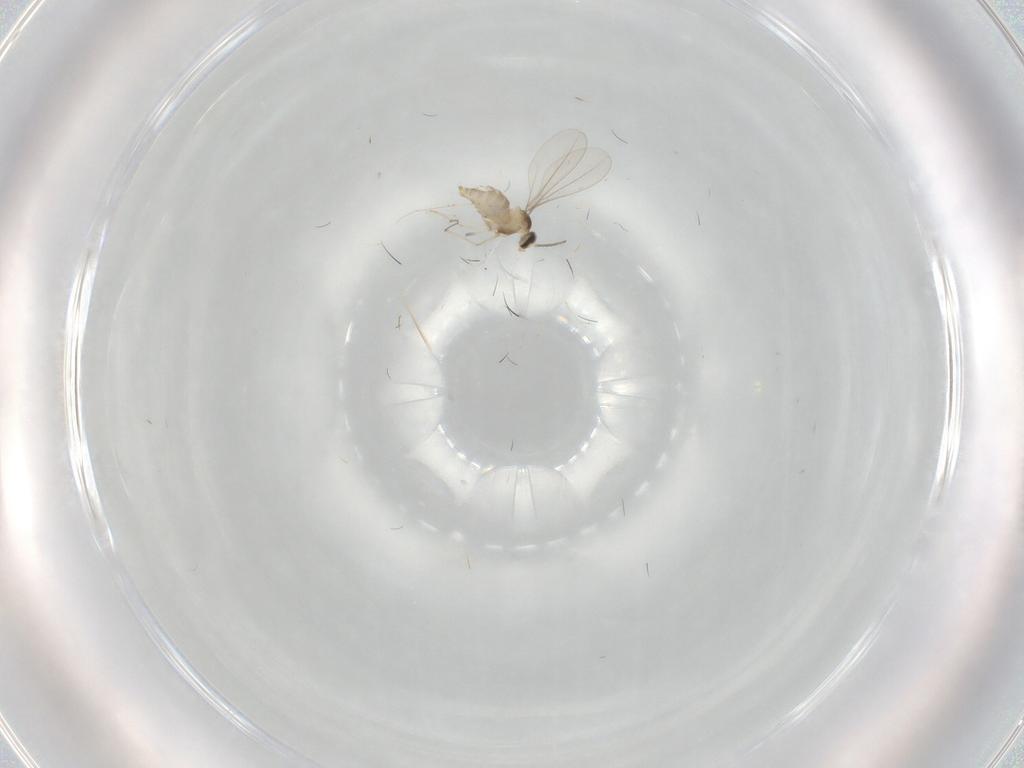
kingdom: Animalia
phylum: Arthropoda
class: Insecta
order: Diptera
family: Cecidomyiidae
